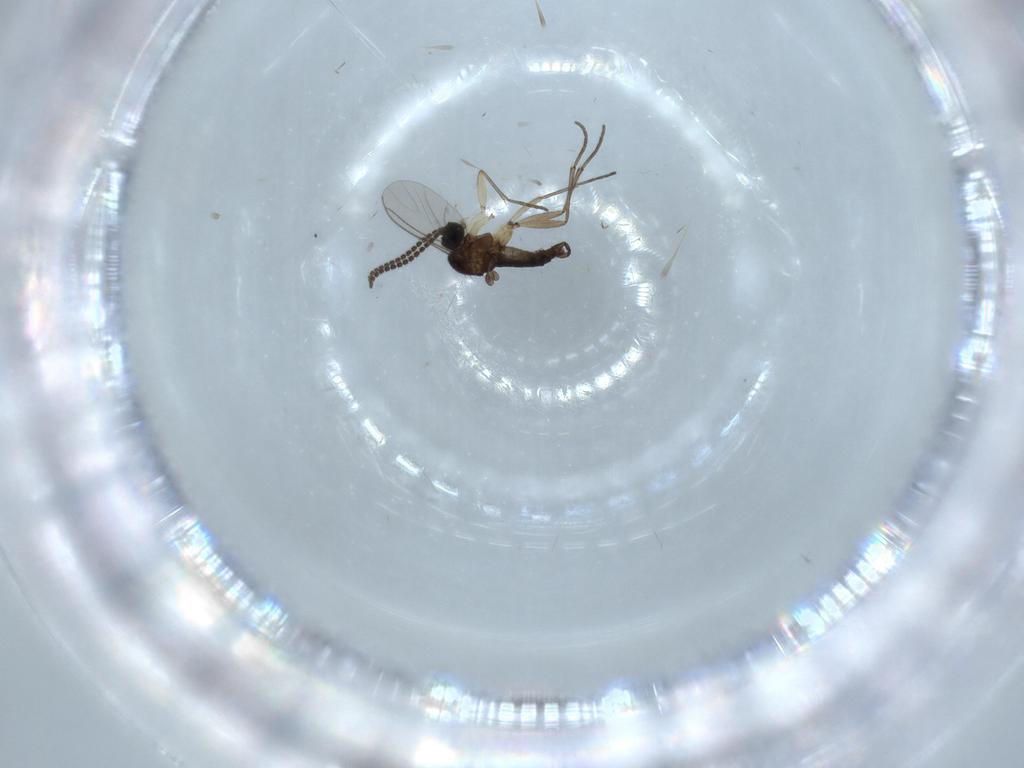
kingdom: Animalia
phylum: Arthropoda
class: Insecta
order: Diptera
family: Sciaridae
